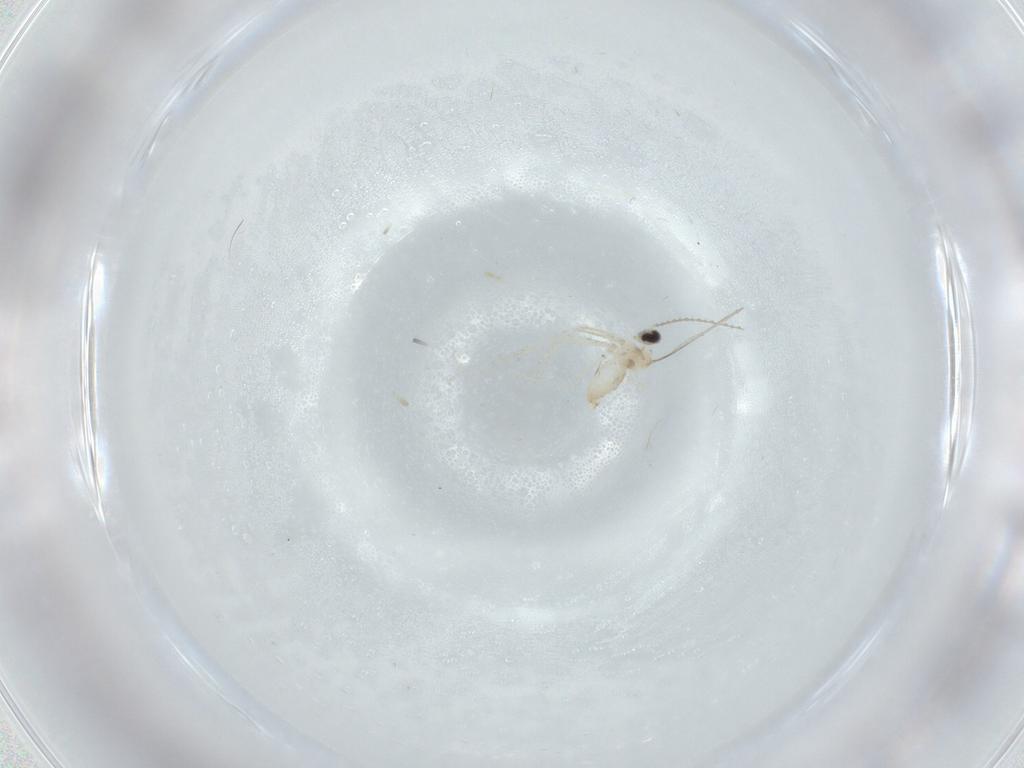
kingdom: Animalia
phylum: Arthropoda
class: Insecta
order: Diptera
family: Cecidomyiidae
